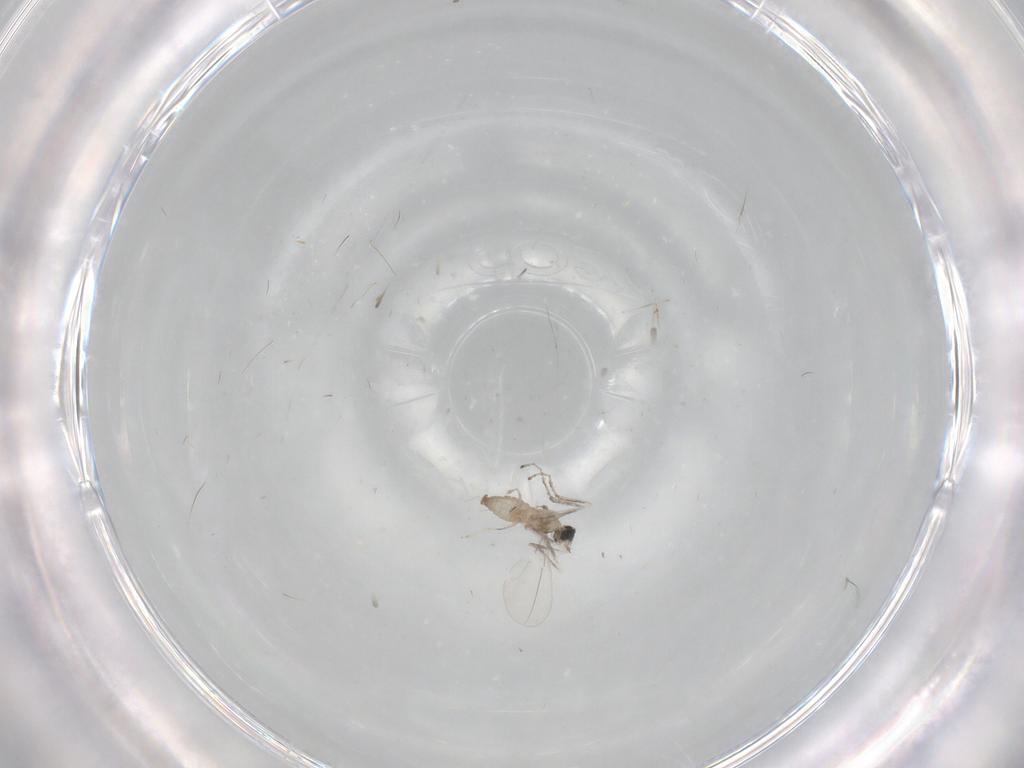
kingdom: Animalia
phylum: Arthropoda
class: Insecta
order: Diptera
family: Cecidomyiidae
